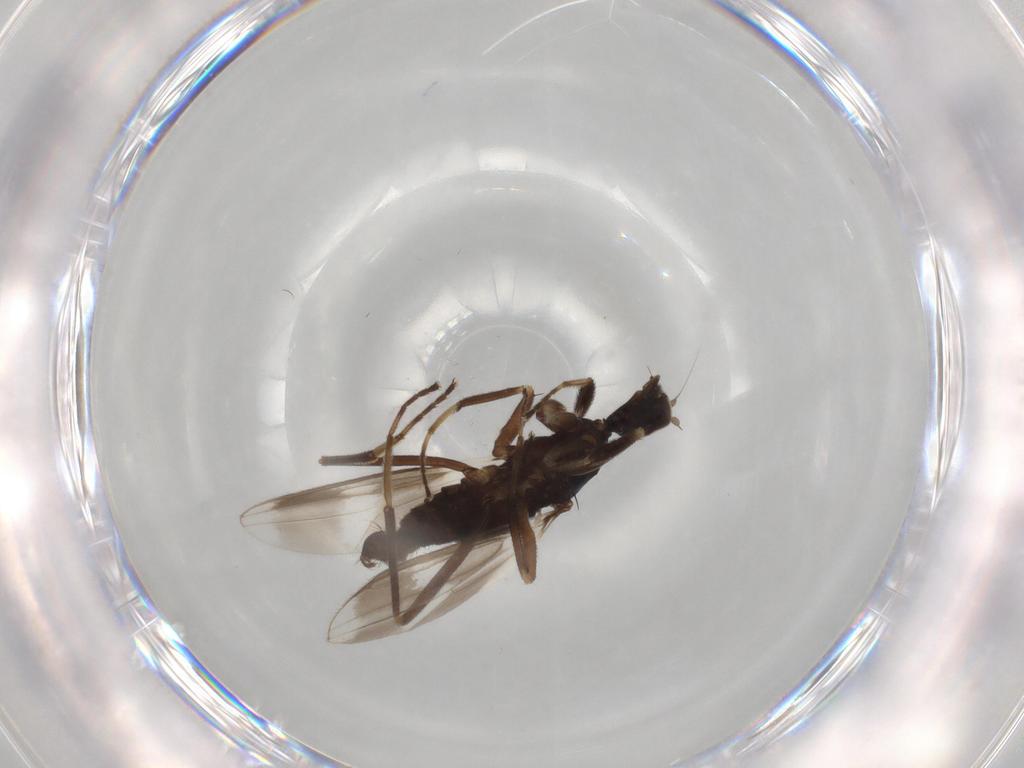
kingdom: Animalia
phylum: Arthropoda
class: Insecta
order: Diptera
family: Hybotidae
